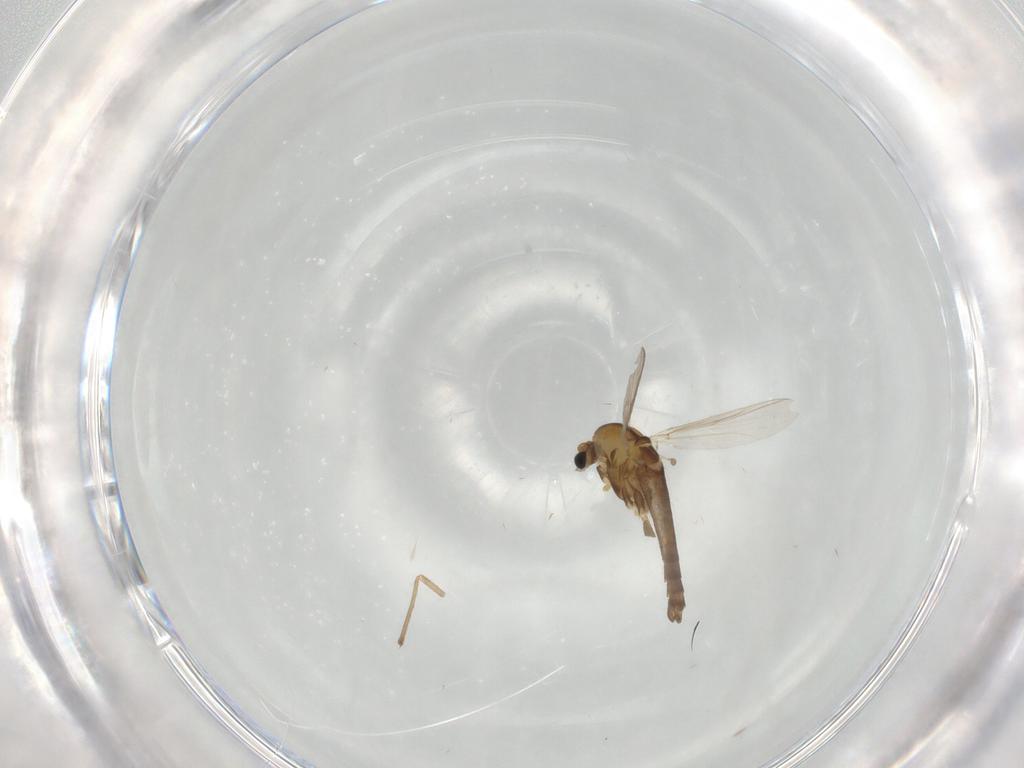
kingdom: Animalia
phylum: Arthropoda
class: Insecta
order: Diptera
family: Chironomidae
